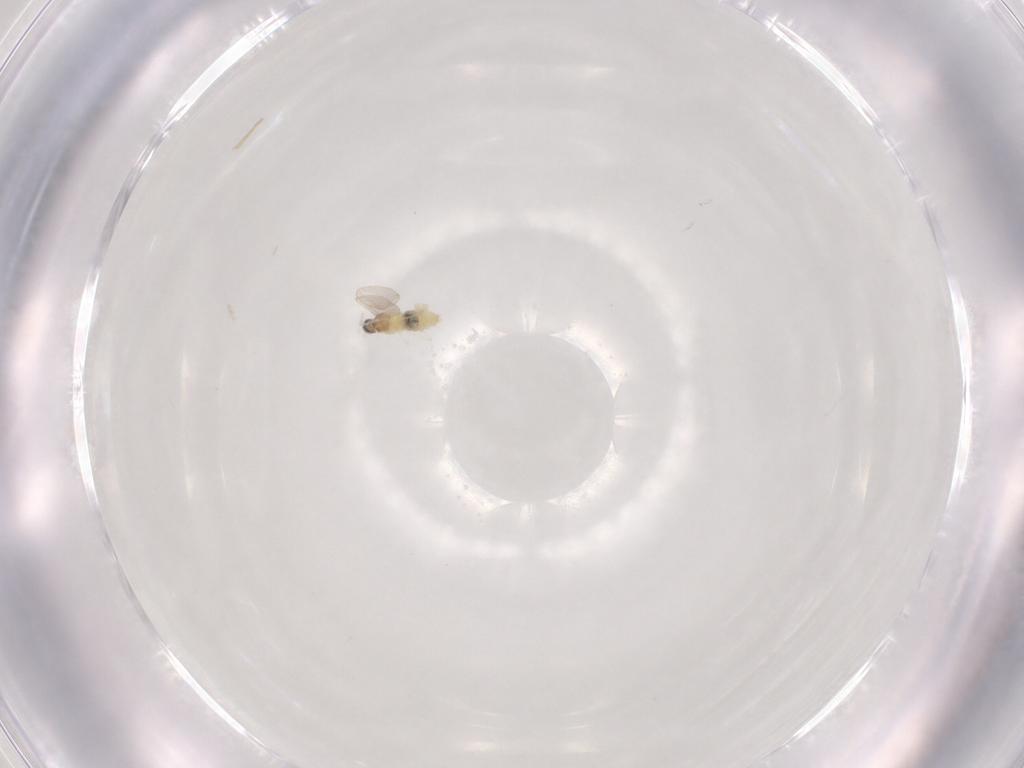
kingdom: Animalia
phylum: Arthropoda
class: Insecta
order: Diptera
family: Cecidomyiidae
